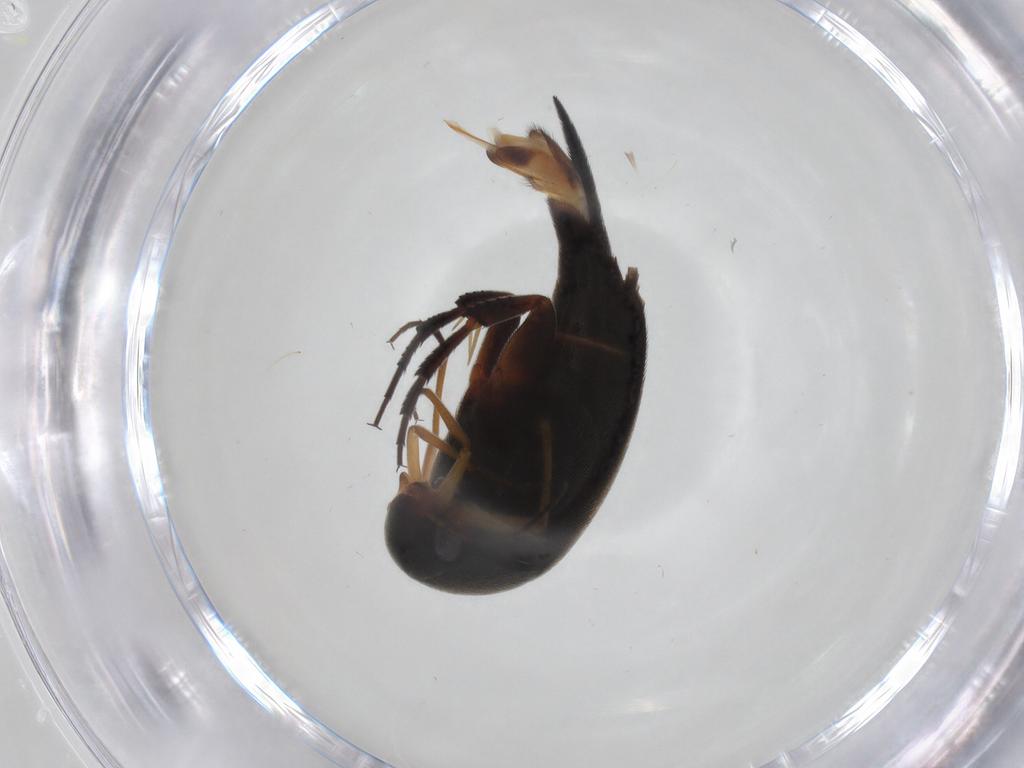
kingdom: Animalia
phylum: Arthropoda
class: Insecta
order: Coleoptera
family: Mordellidae
